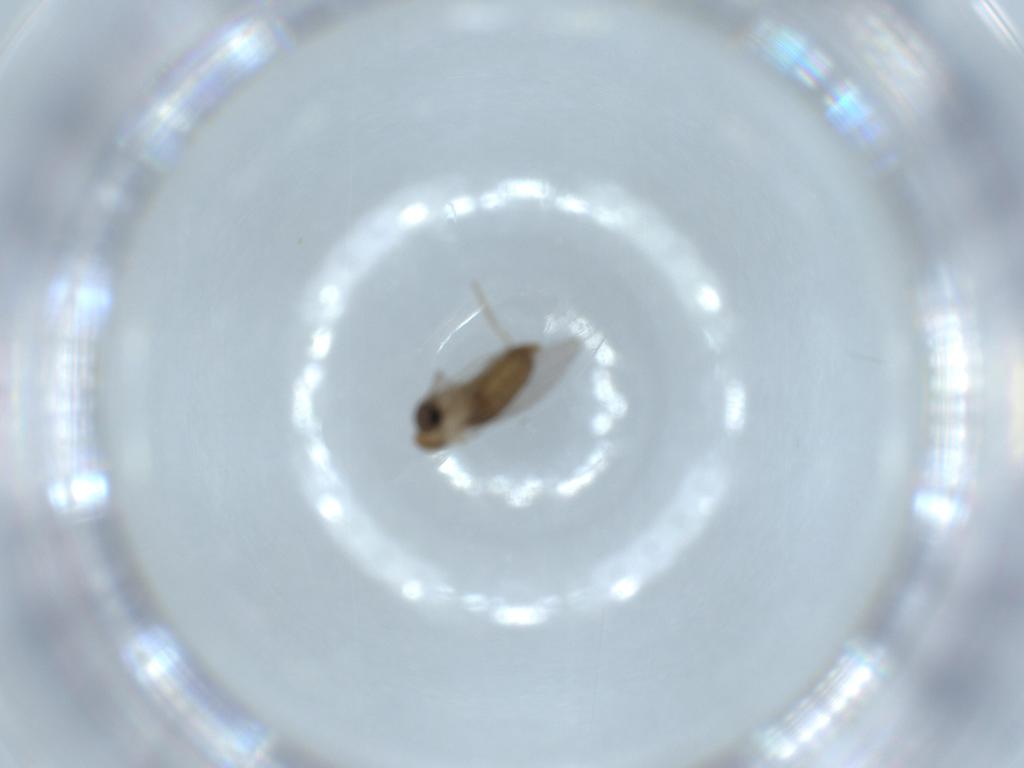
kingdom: Animalia
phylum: Arthropoda
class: Insecta
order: Diptera
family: Psychodidae
